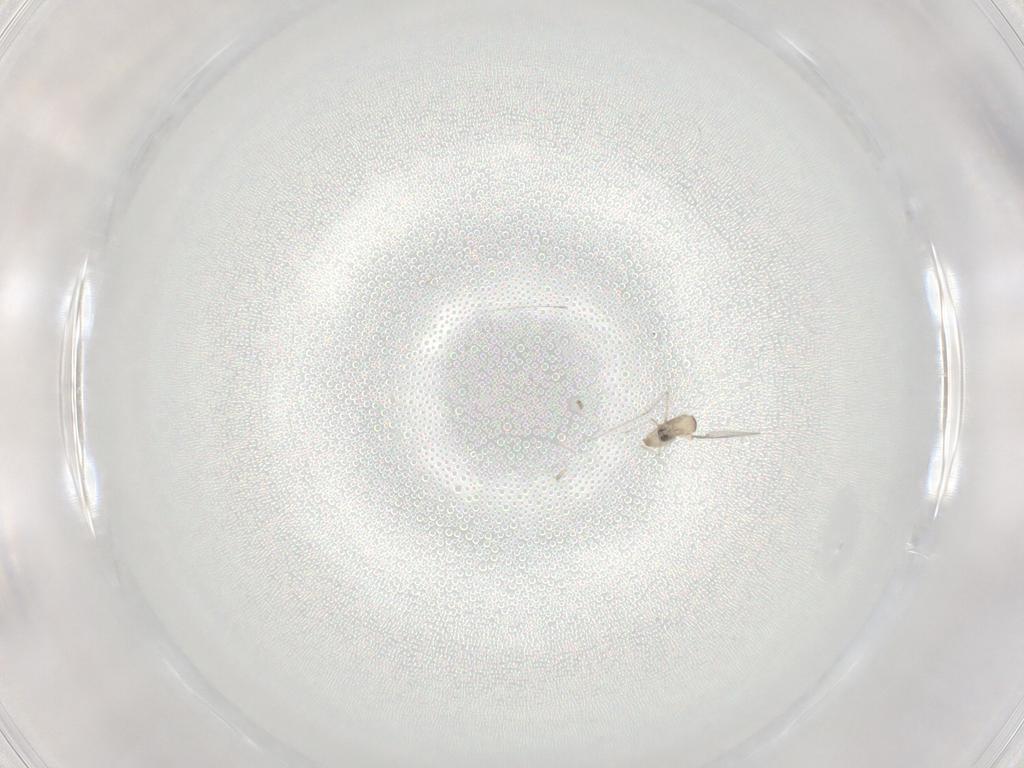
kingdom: Animalia
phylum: Arthropoda
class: Insecta
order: Diptera
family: Cecidomyiidae
